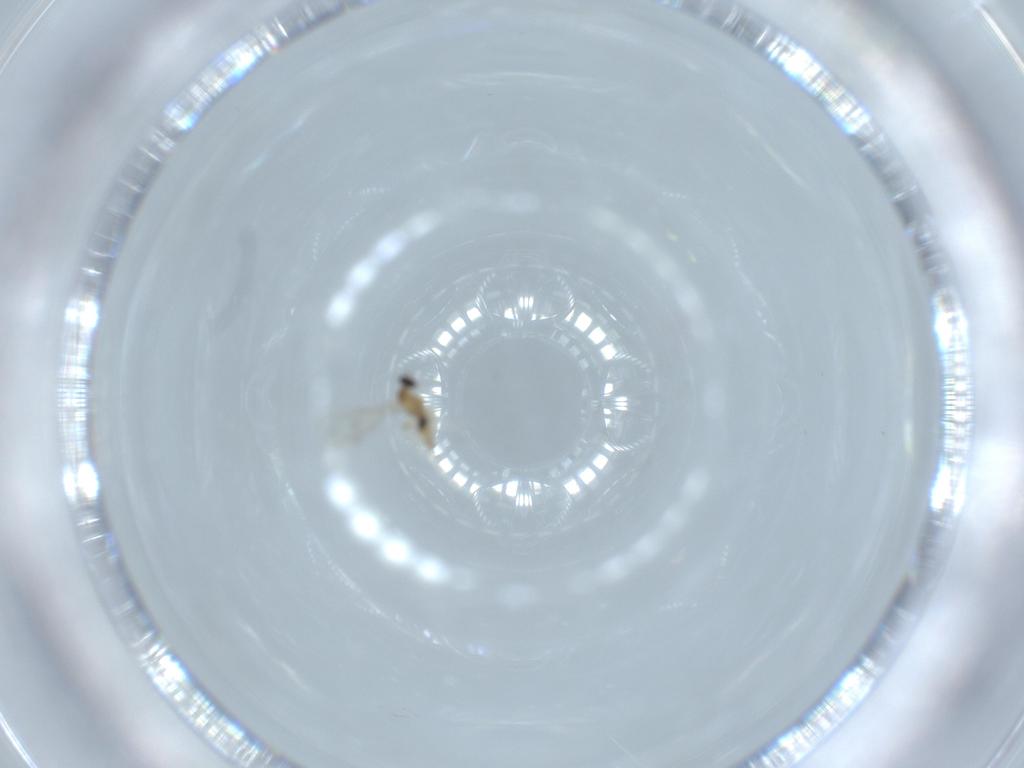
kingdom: Animalia
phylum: Arthropoda
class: Insecta
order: Diptera
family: Cecidomyiidae
